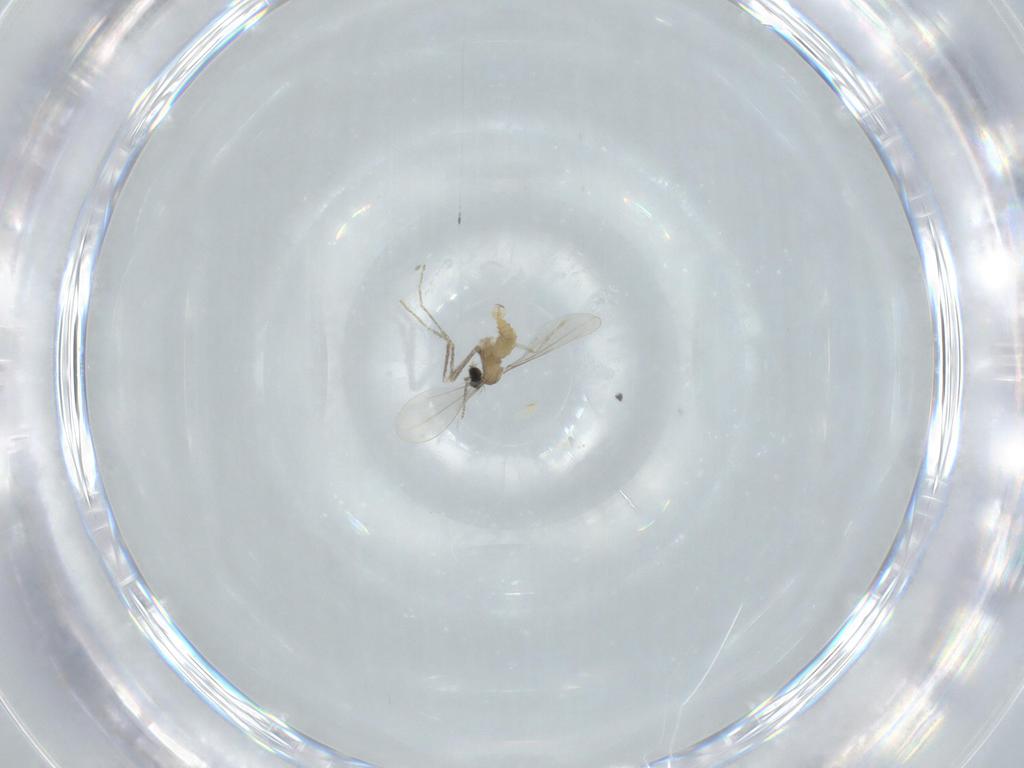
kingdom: Animalia
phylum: Arthropoda
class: Insecta
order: Diptera
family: Cecidomyiidae
